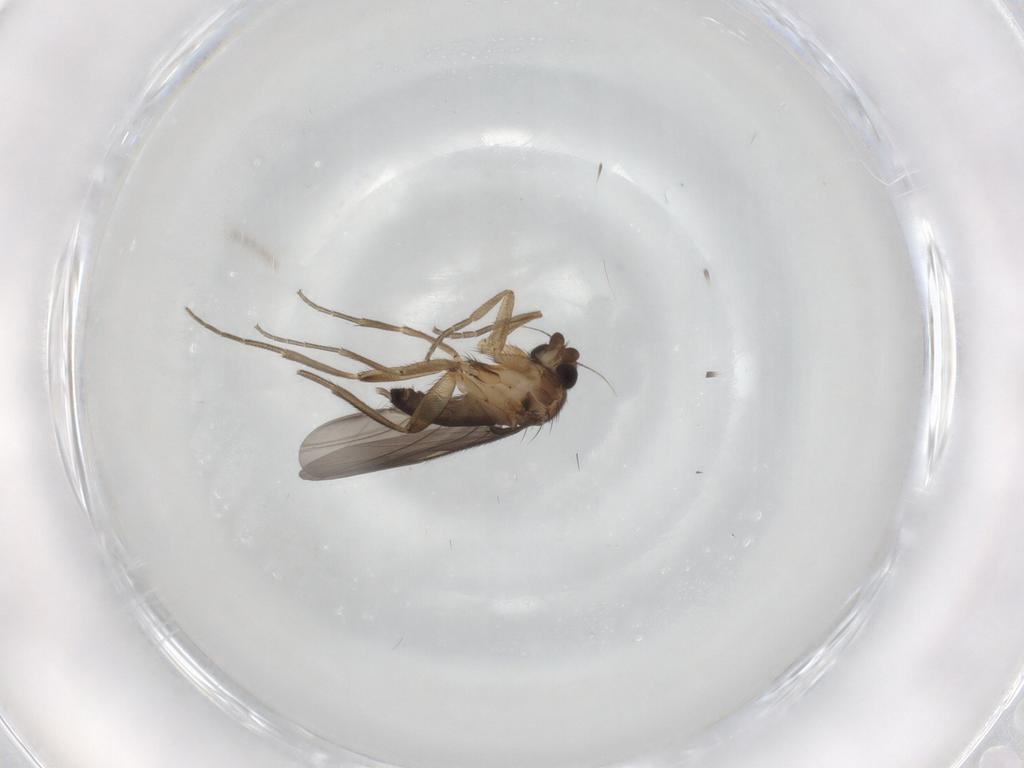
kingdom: Animalia
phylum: Arthropoda
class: Insecta
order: Diptera
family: Phoridae
